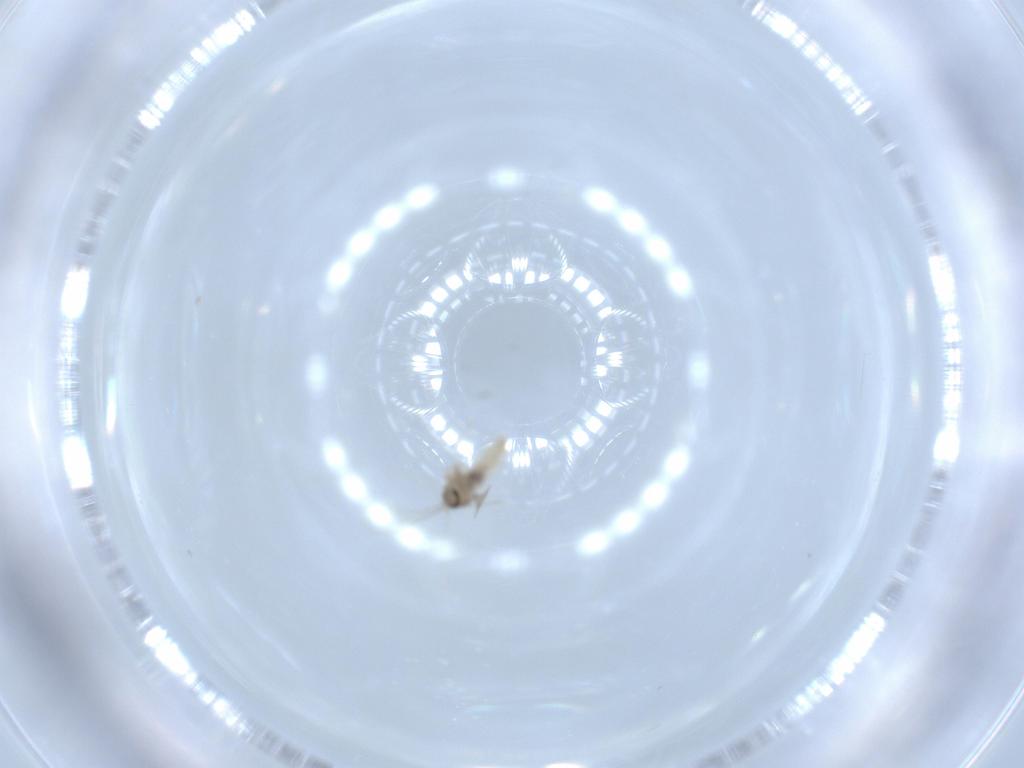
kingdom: Animalia
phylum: Arthropoda
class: Insecta
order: Diptera
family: Cecidomyiidae
